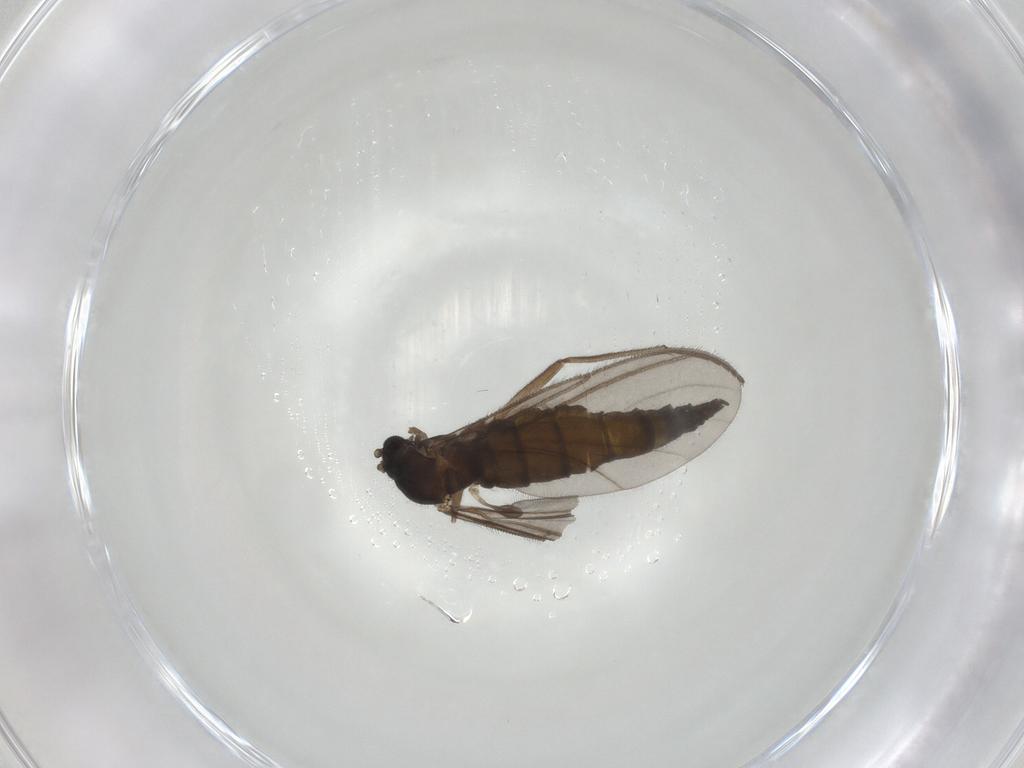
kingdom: Animalia
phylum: Arthropoda
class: Insecta
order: Diptera
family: Sciaridae
